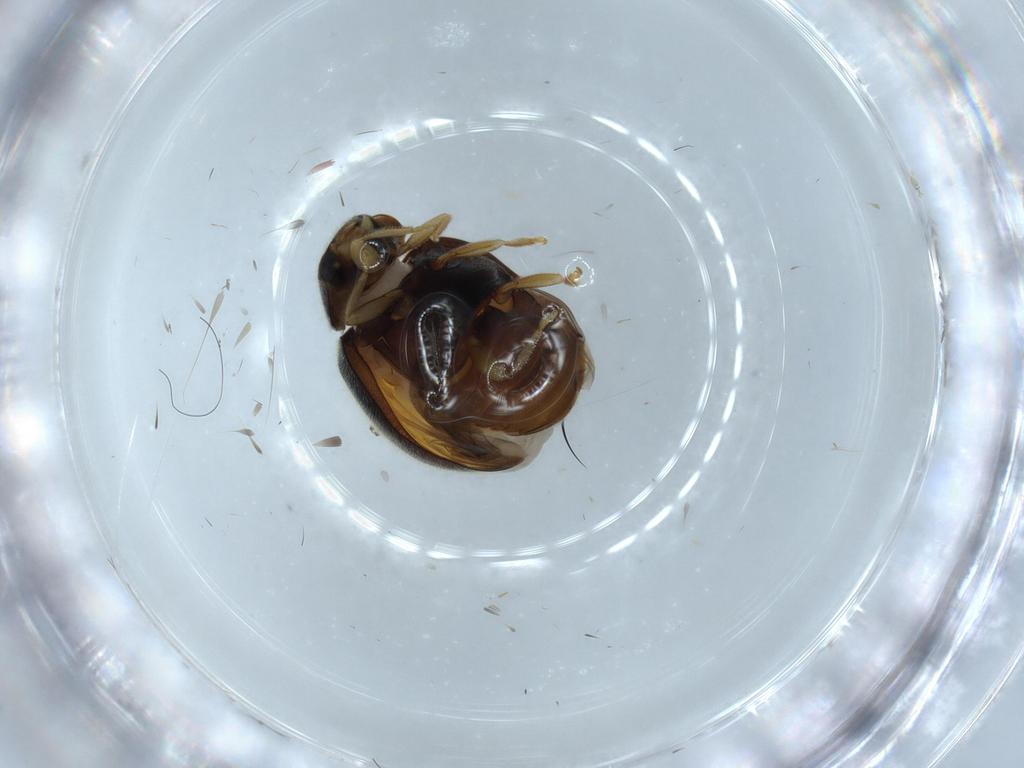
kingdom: Animalia
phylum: Arthropoda
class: Insecta
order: Coleoptera
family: Coccinellidae
